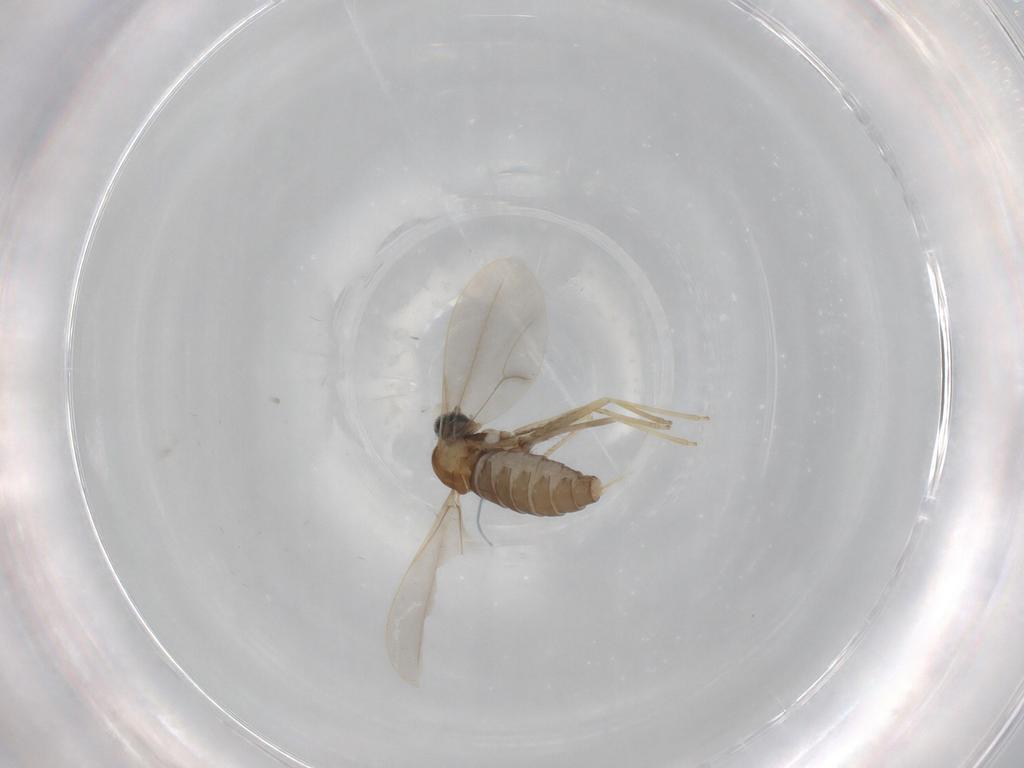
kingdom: Animalia
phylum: Arthropoda
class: Insecta
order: Diptera
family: Cecidomyiidae
